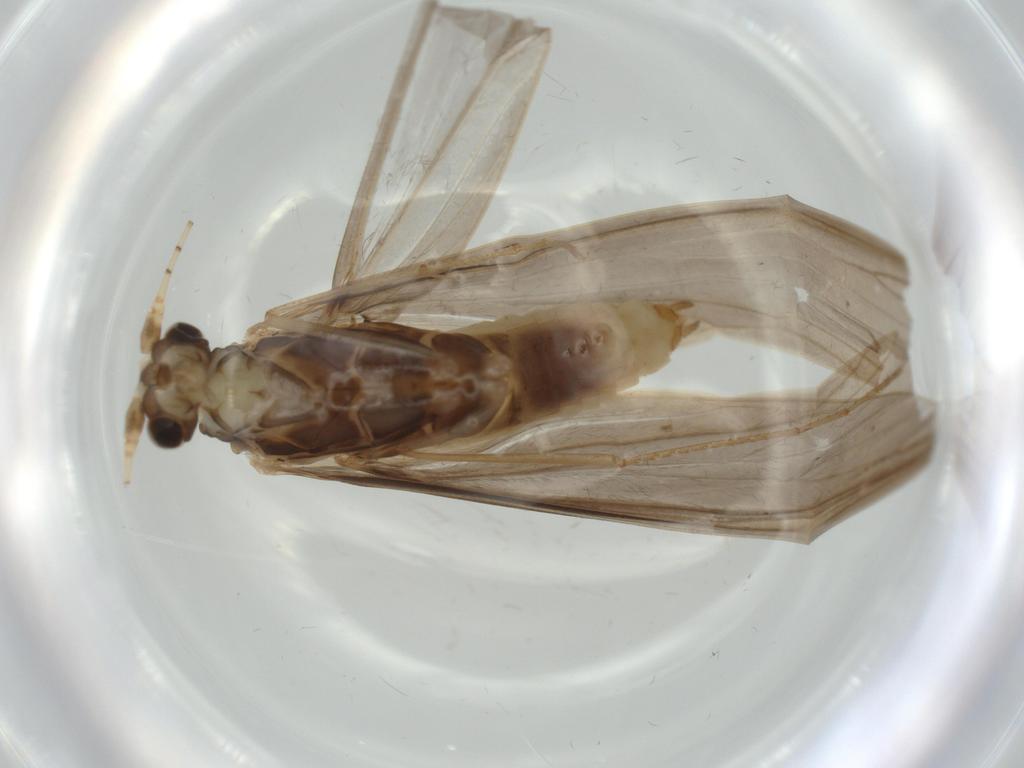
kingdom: Animalia
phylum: Arthropoda
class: Insecta
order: Trichoptera
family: Leptoceridae
